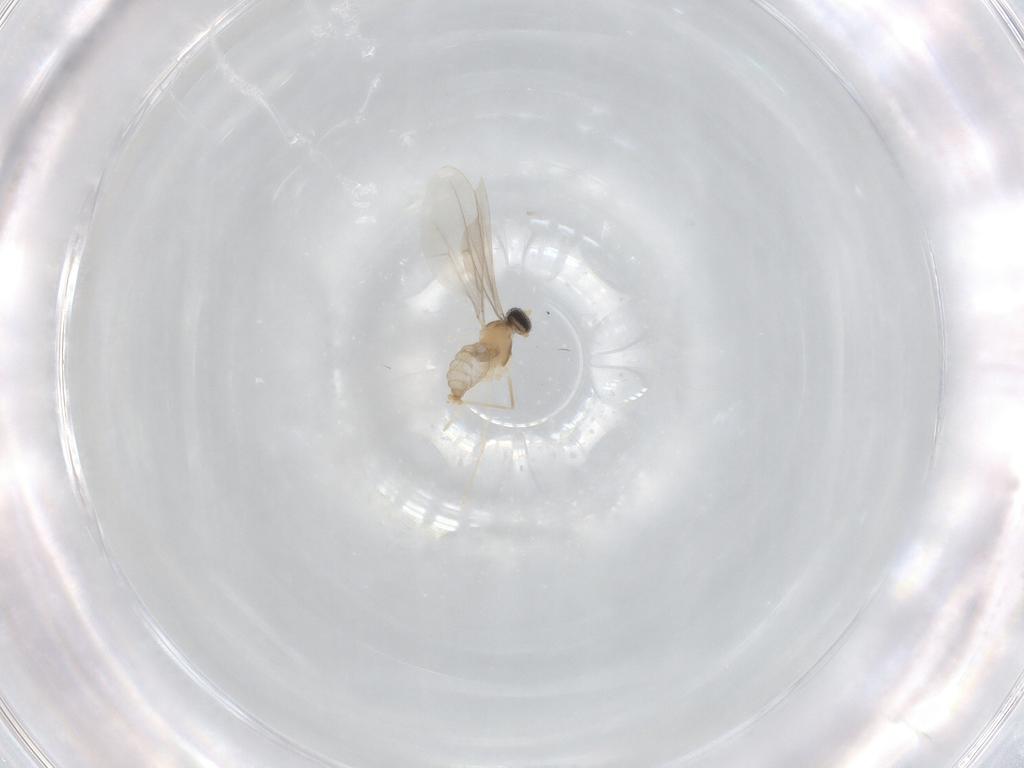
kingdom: Animalia
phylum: Arthropoda
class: Insecta
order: Diptera
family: Cecidomyiidae
